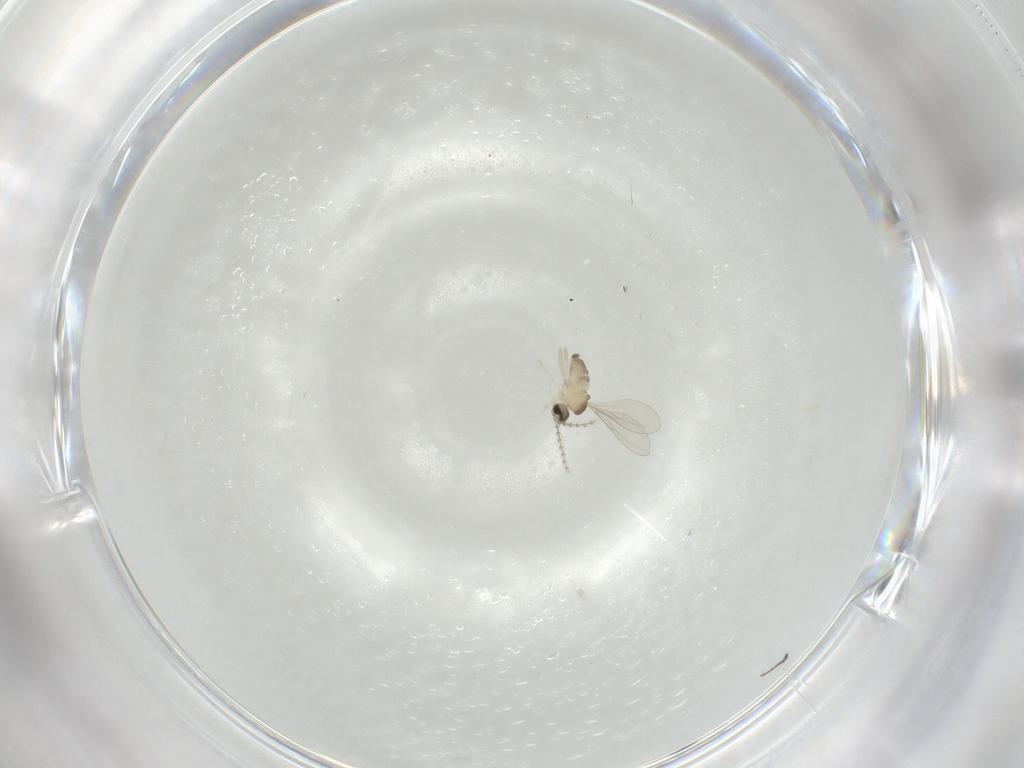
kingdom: Animalia
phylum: Arthropoda
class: Insecta
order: Diptera
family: Cecidomyiidae
